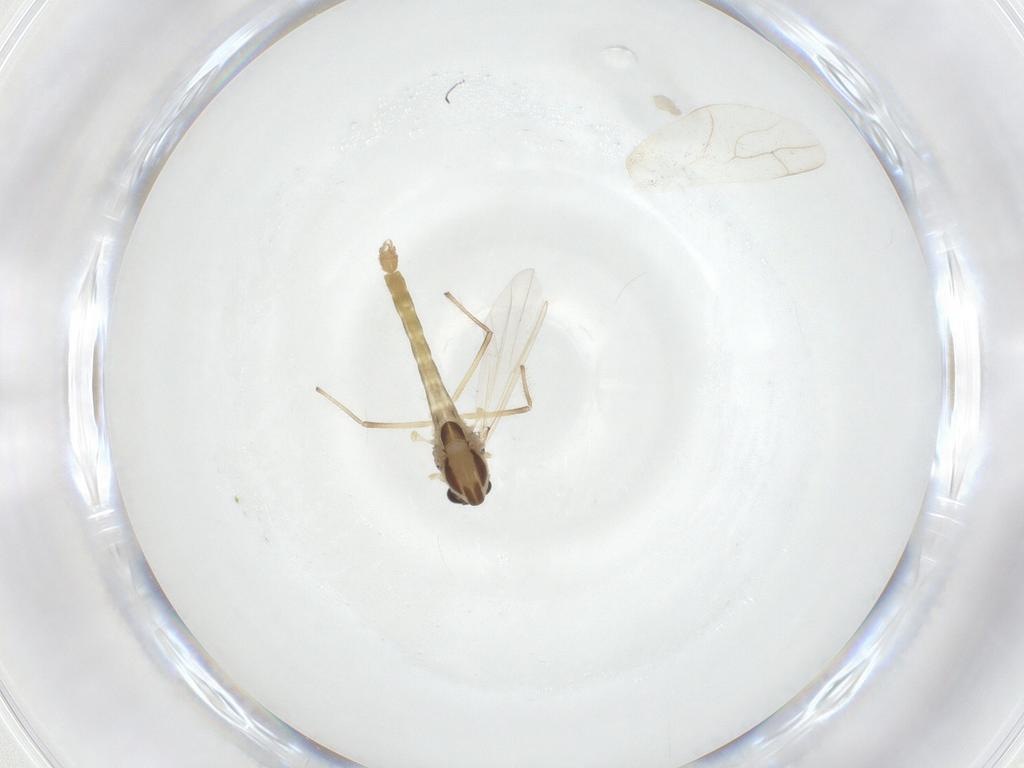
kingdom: Animalia
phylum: Arthropoda
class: Insecta
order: Diptera
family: Chironomidae
